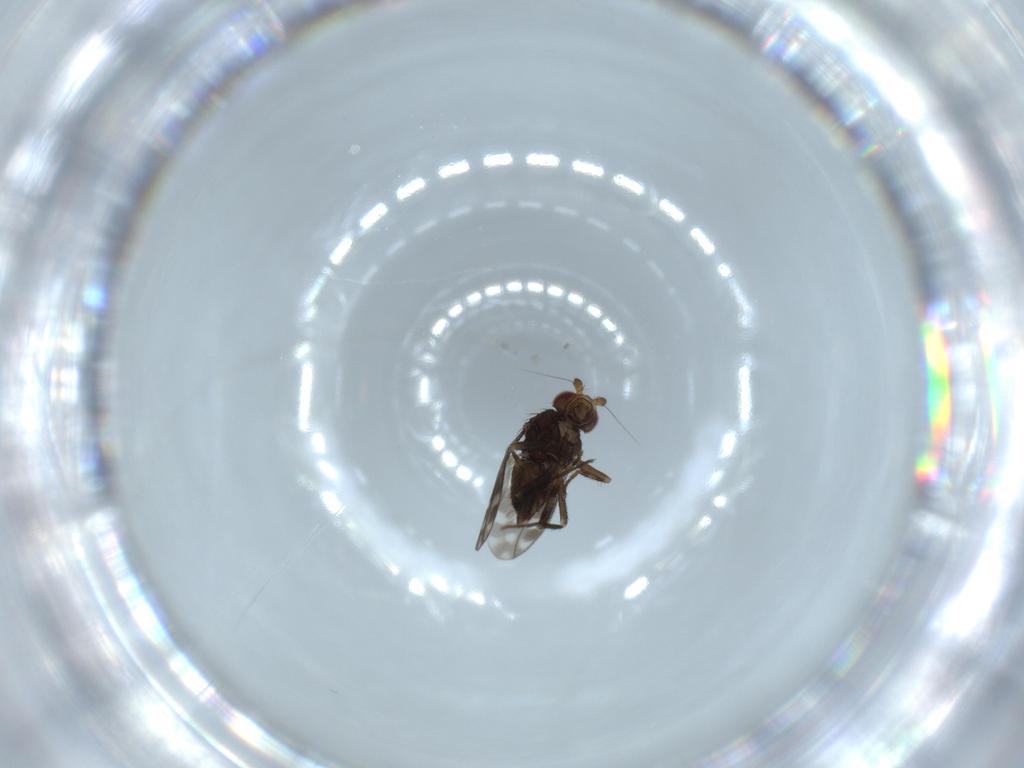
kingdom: Animalia
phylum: Arthropoda
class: Insecta
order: Diptera
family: Sphaeroceridae
